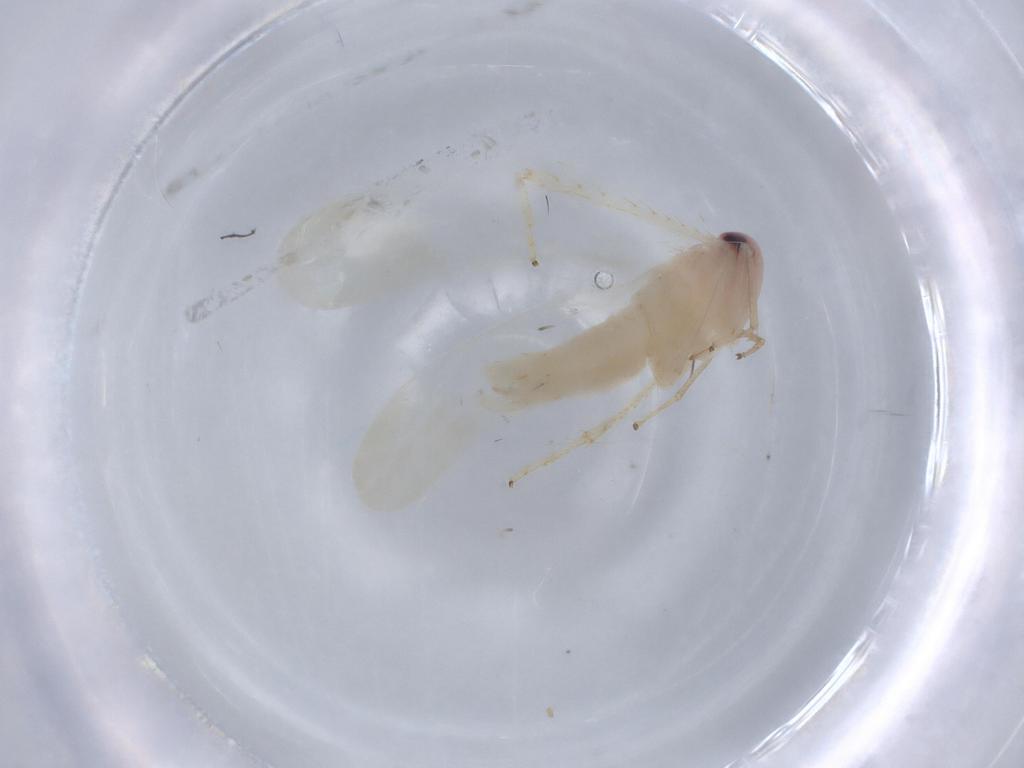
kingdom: Animalia
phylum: Arthropoda
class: Insecta
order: Hemiptera
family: Cicadellidae
